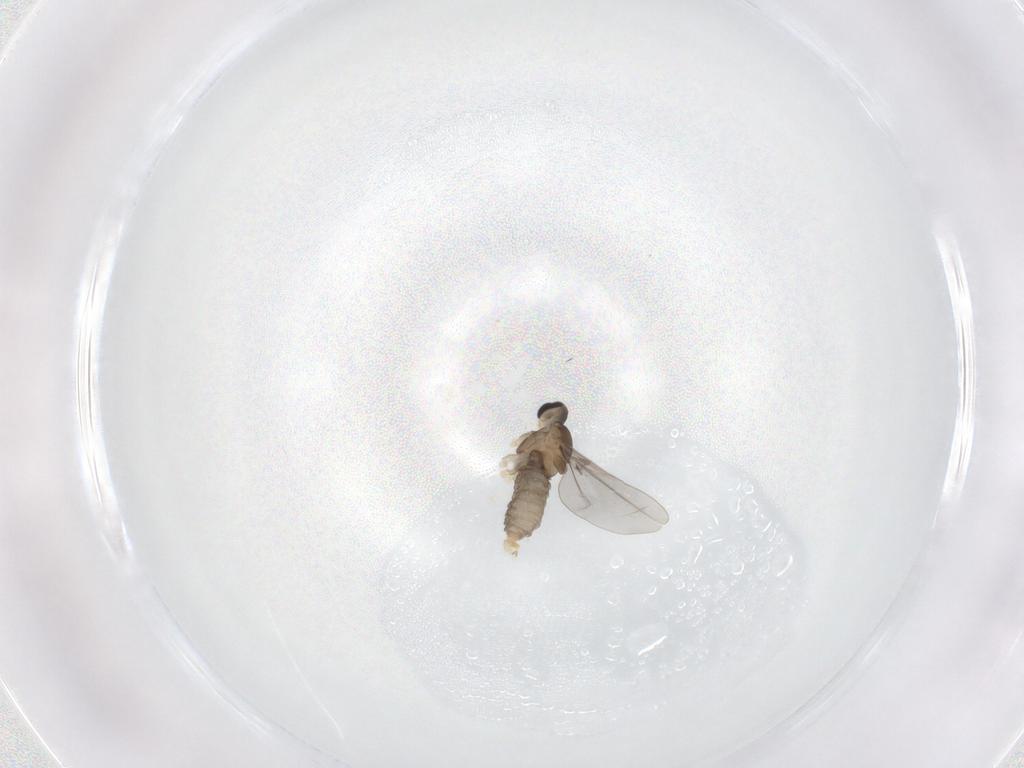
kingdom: Animalia
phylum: Arthropoda
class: Insecta
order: Diptera
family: Cecidomyiidae
